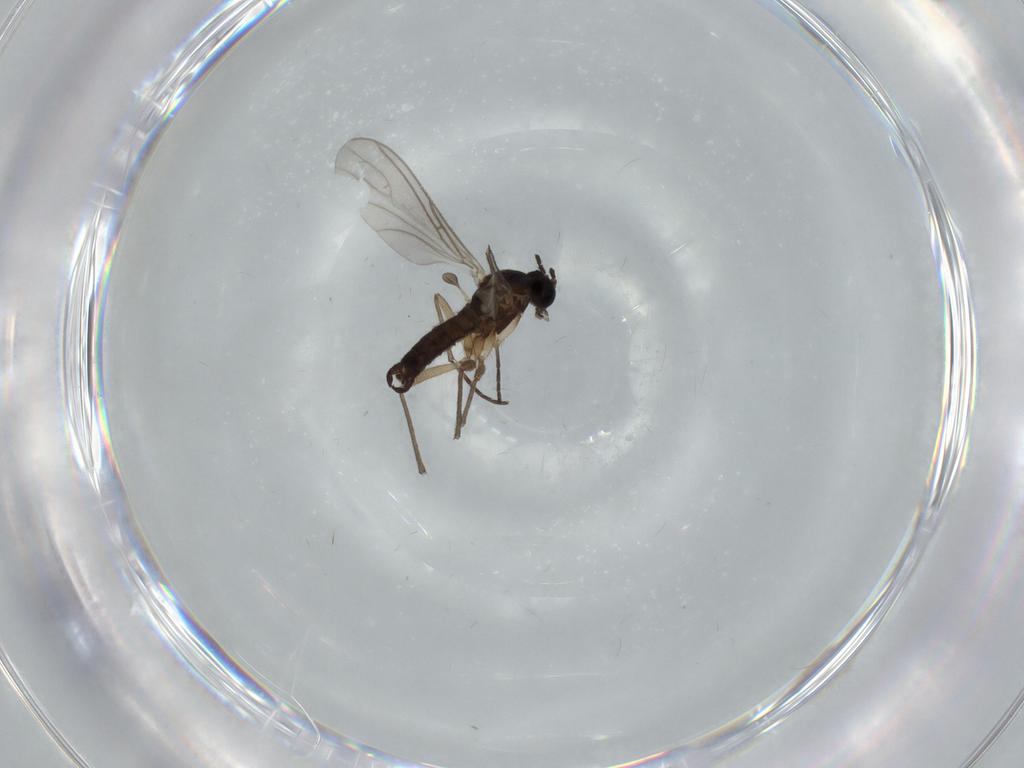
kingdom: Animalia
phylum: Arthropoda
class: Insecta
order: Diptera
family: Sciaridae
